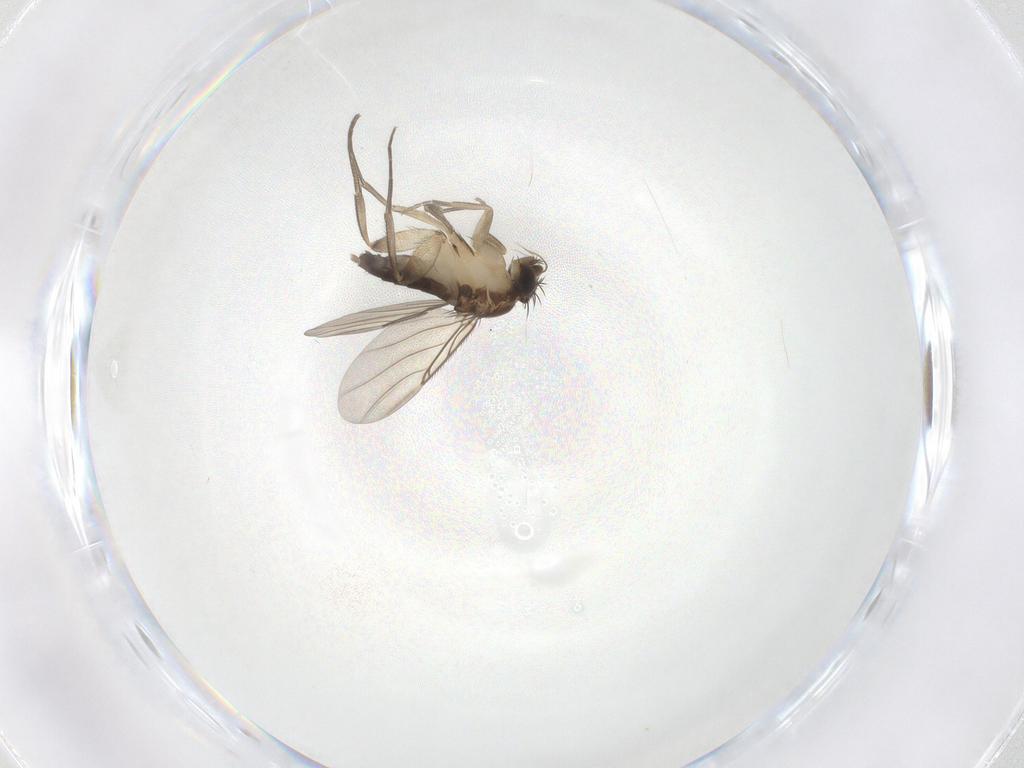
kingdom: Animalia
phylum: Arthropoda
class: Insecta
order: Diptera
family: Phoridae
